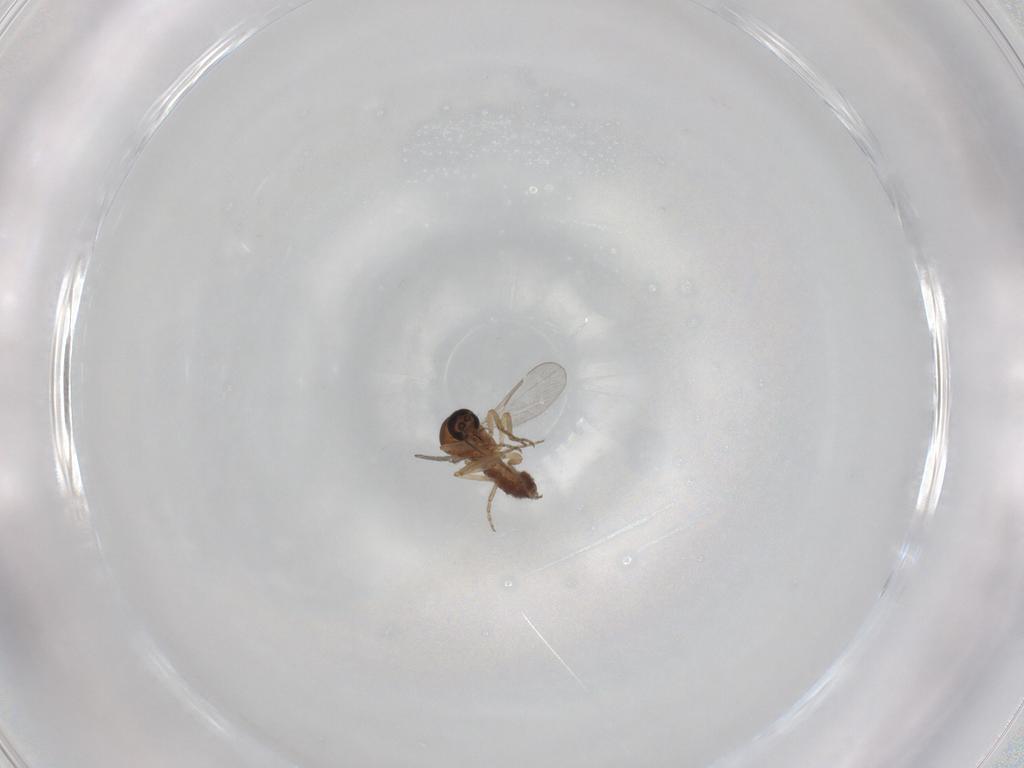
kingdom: Animalia
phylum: Arthropoda
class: Insecta
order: Diptera
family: Ceratopogonidae
